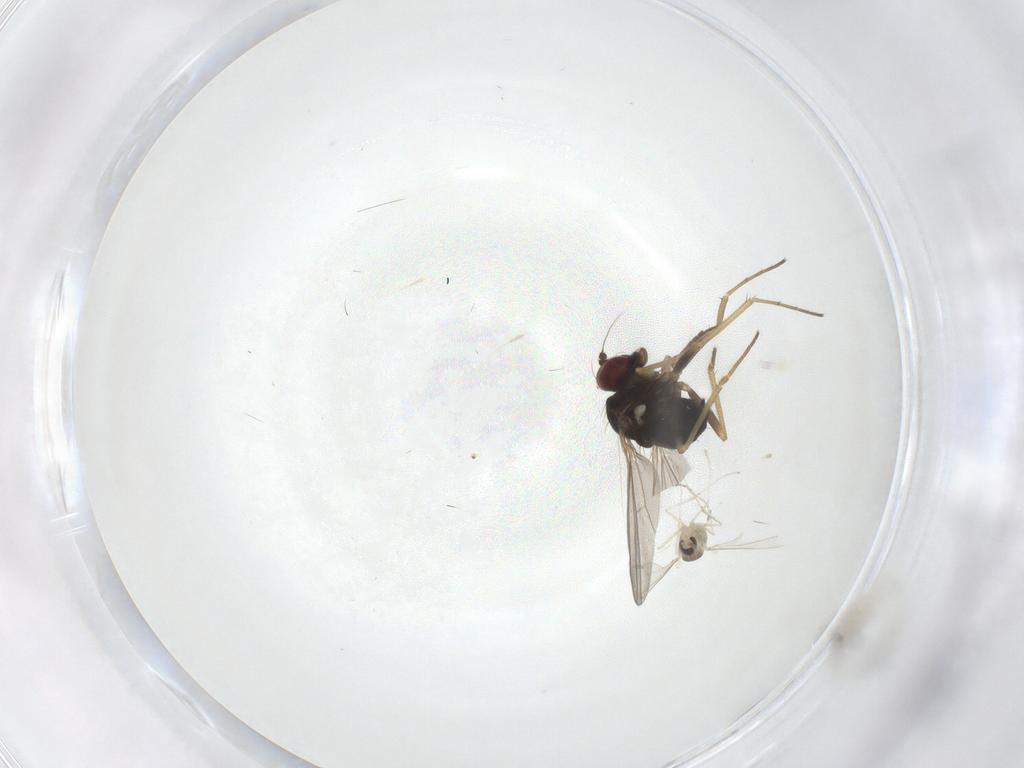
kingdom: Animalia
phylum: Arthropoda
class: Insecta
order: Diptera
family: Cecidomyiidae
